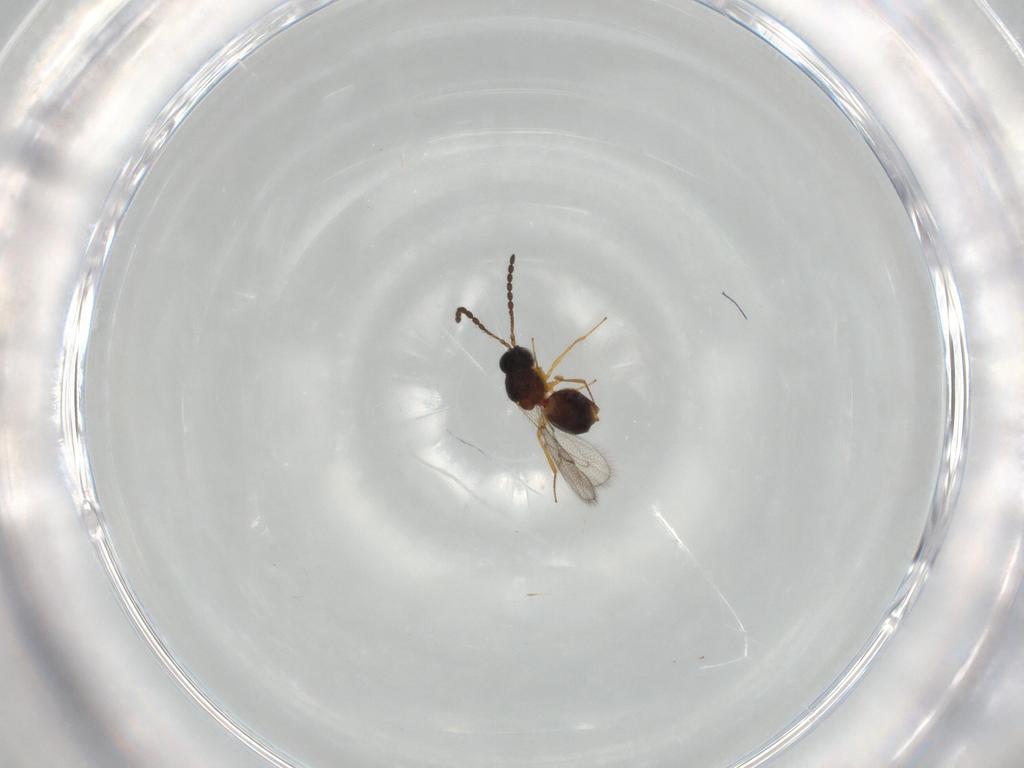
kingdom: Animalia
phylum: Arthropoda
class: Insecta
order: Hymenoptera
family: Figitidae
